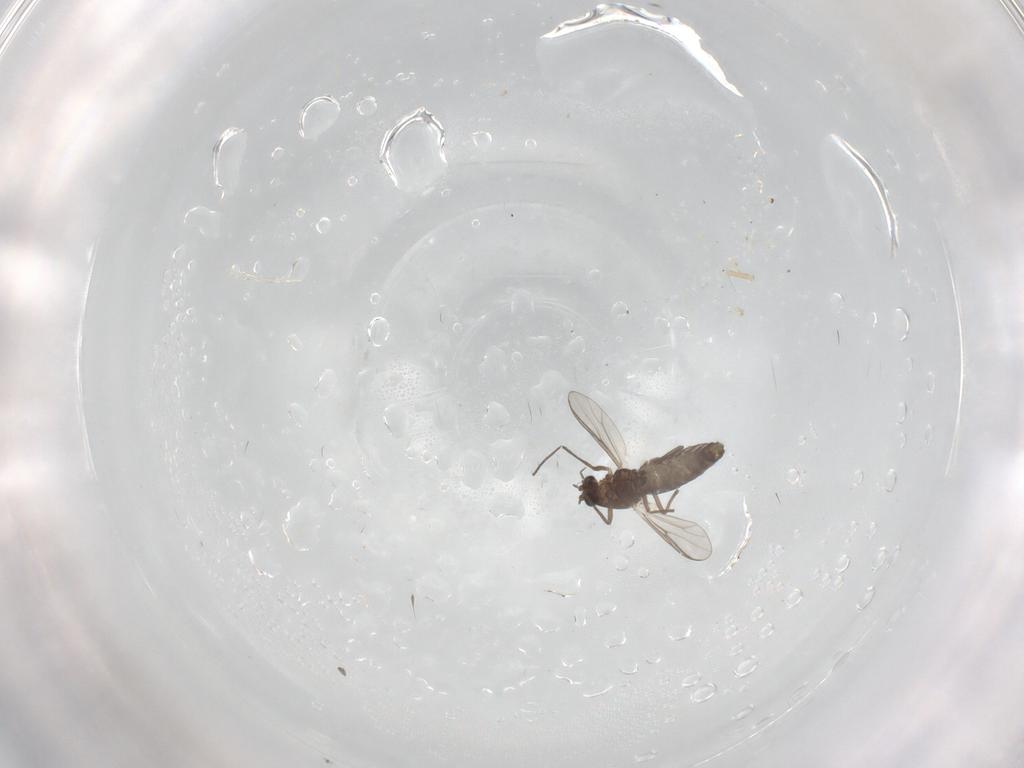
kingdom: Animalia
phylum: Arthropoda
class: Insecta
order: Diptera
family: Chironomidae
